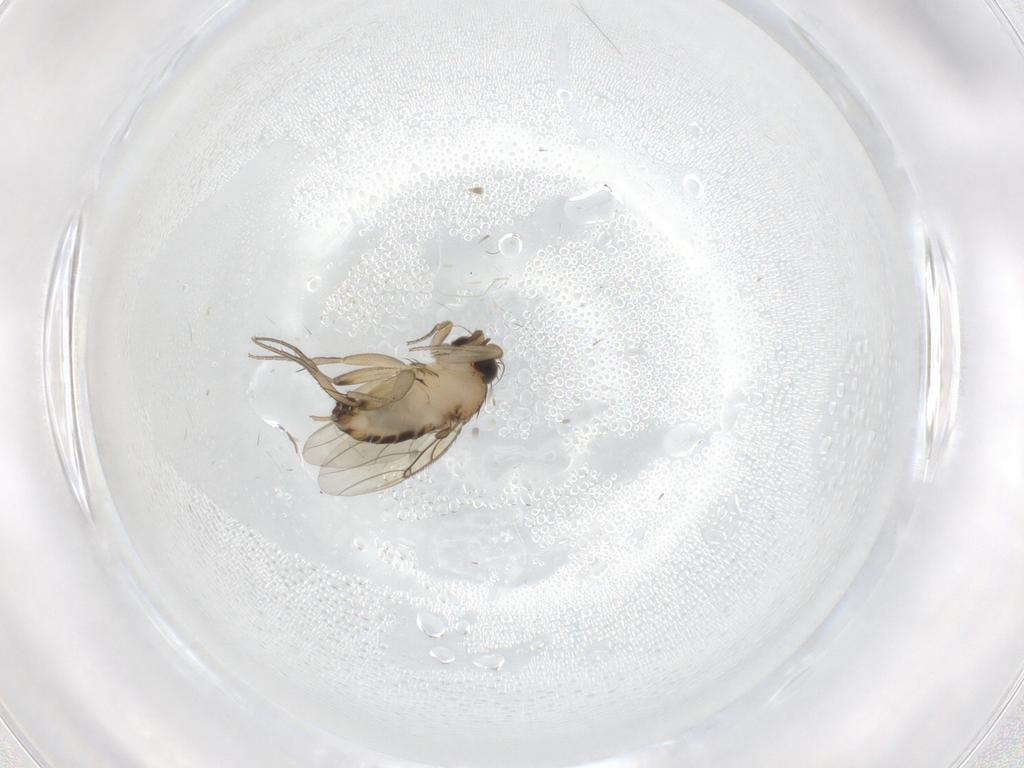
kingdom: Animalia
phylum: Arthropoda
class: Insecta
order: Diptera
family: Phoridae
